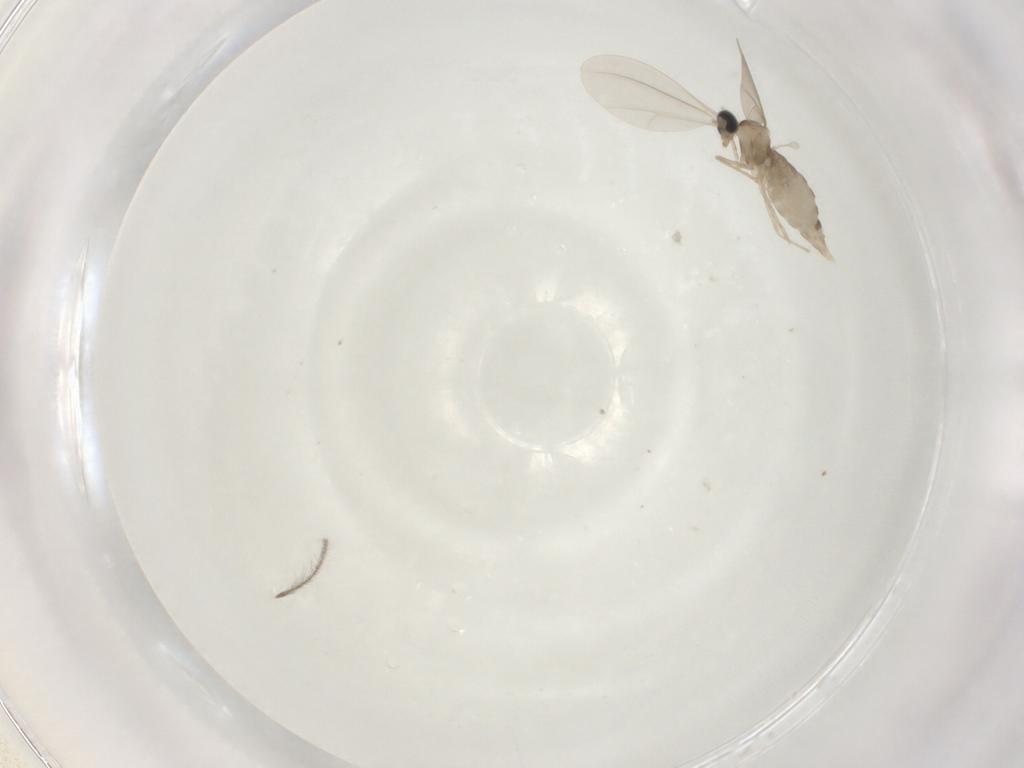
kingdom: Animalia
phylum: Arthropoda
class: Insecta
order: Diptera
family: Cecidomyiidae
